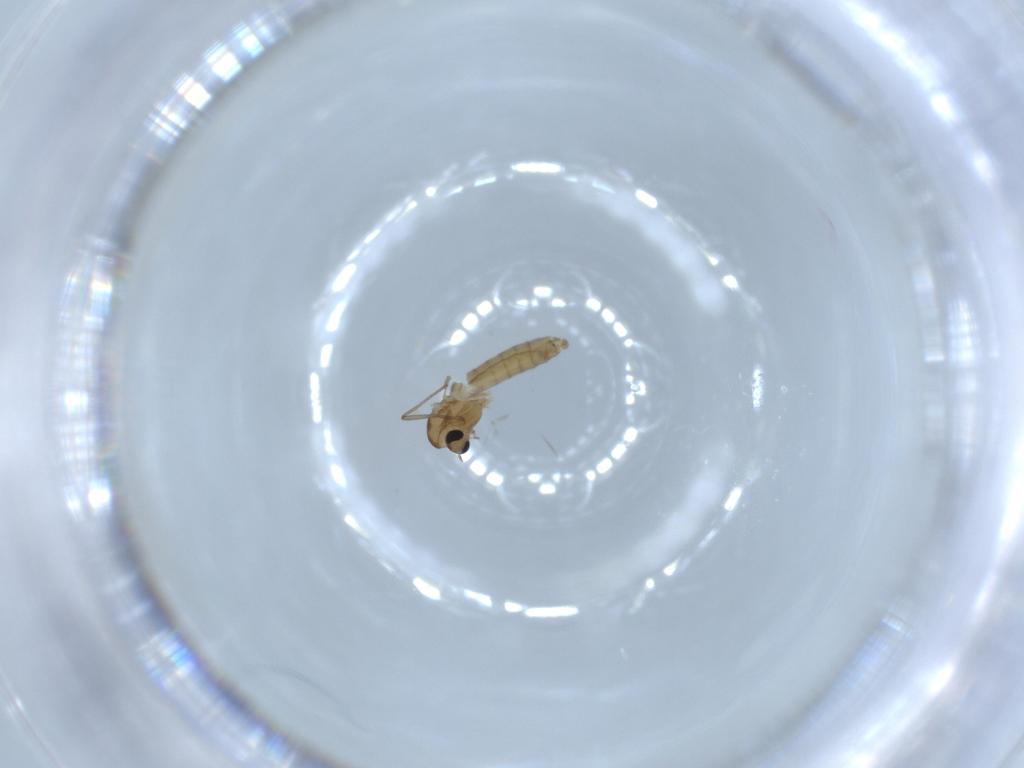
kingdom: Animalia
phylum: Arthropoda
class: Insecta
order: Diptera
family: Chironomidae
